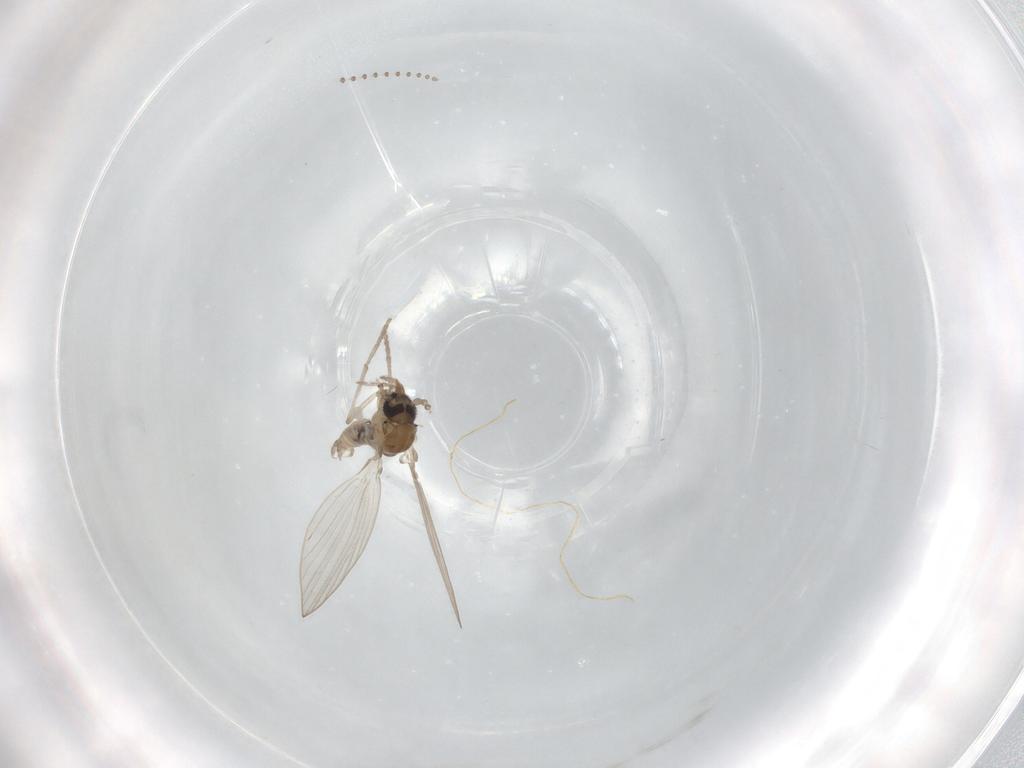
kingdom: Animalia
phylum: Arthropoda
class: Insecta
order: Diptera
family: Psychodidae
